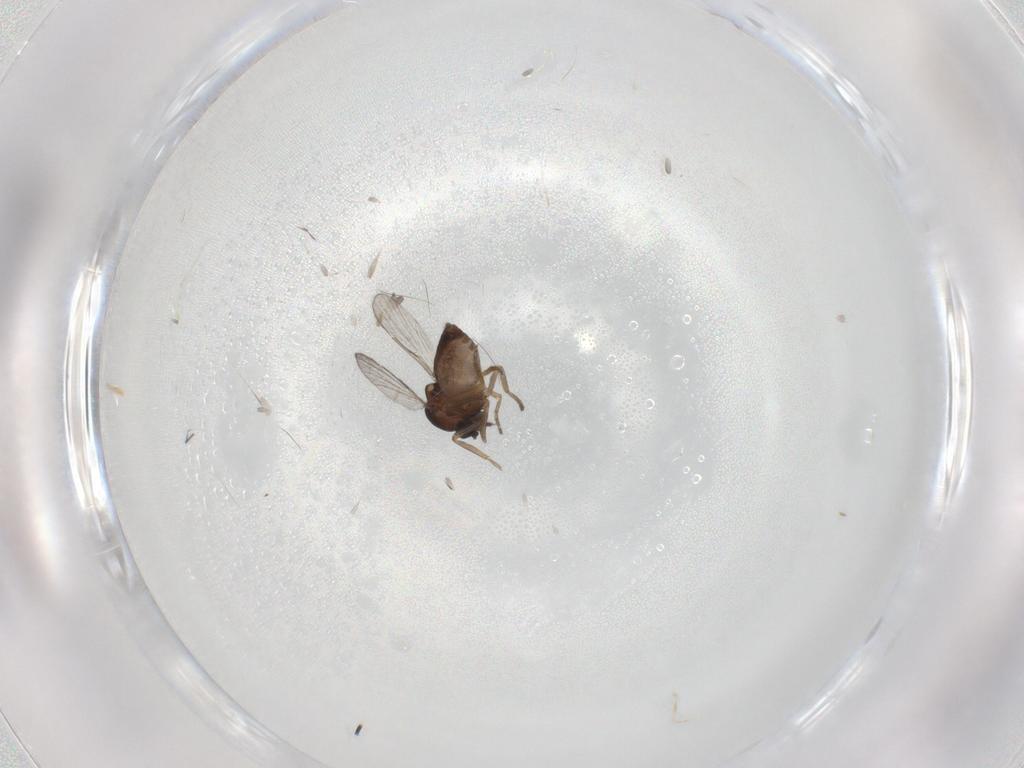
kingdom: Animalia
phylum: Arthropoda
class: Insecta
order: Diptera
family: Ceratopogonidae
